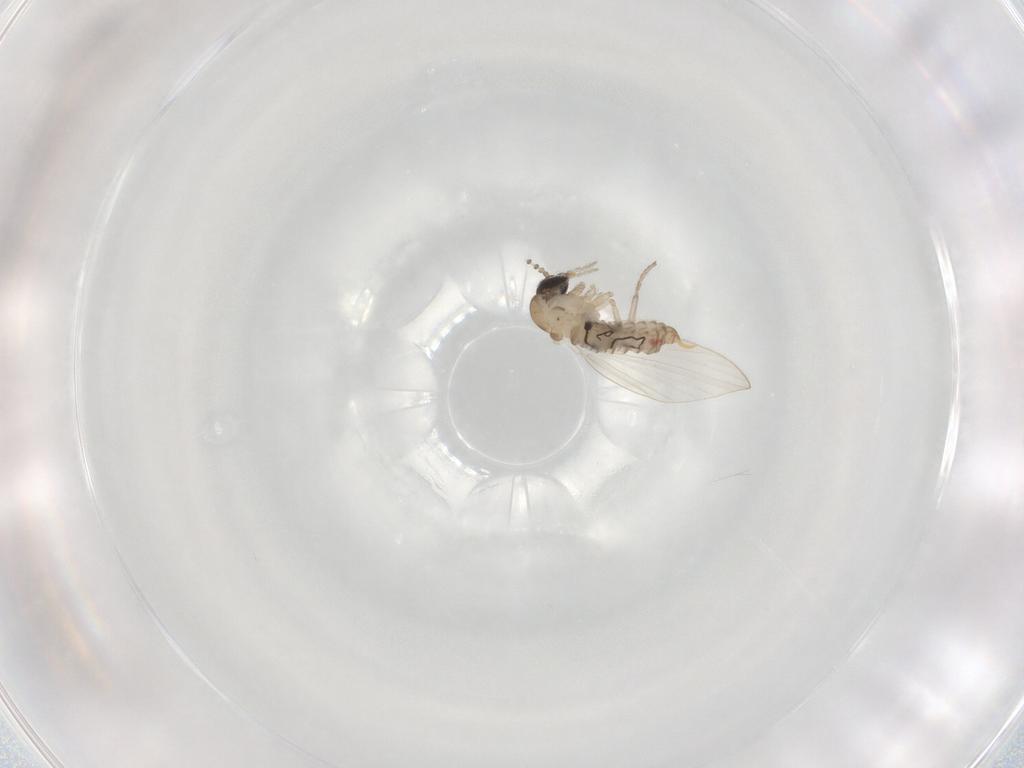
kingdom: Animalia
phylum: Arthropoda
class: Insecta
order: Diptera
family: Psychodidae
